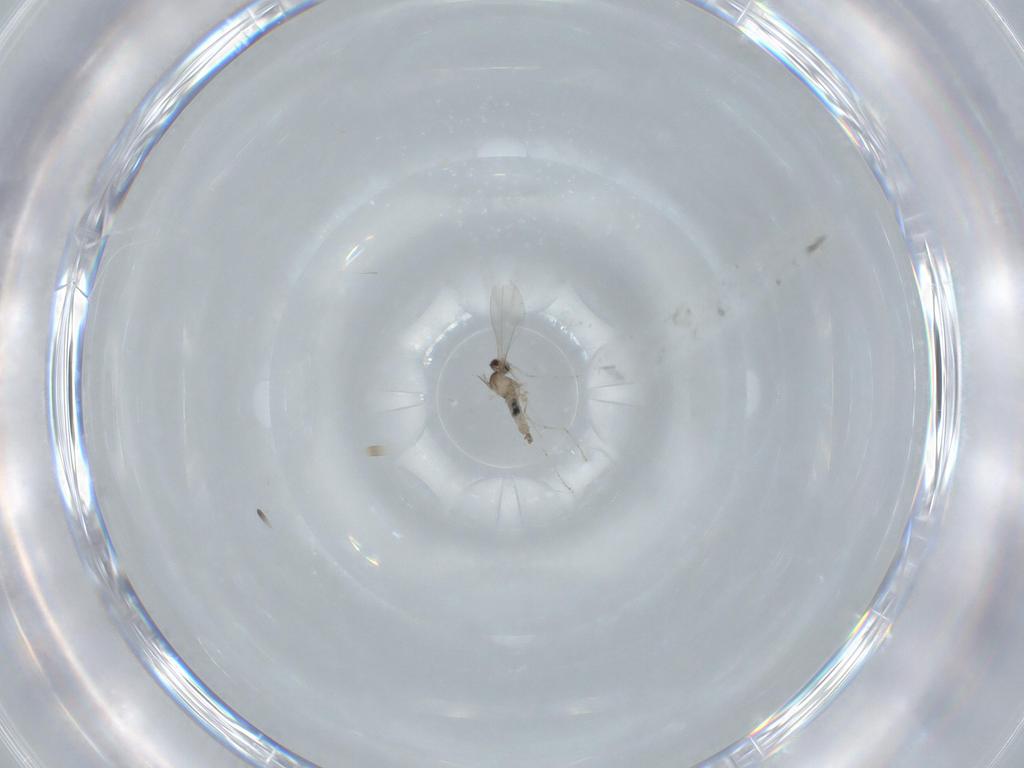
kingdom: Animalia
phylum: Arthropoda
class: Insecta
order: Diptera
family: Cecidomyiidae
